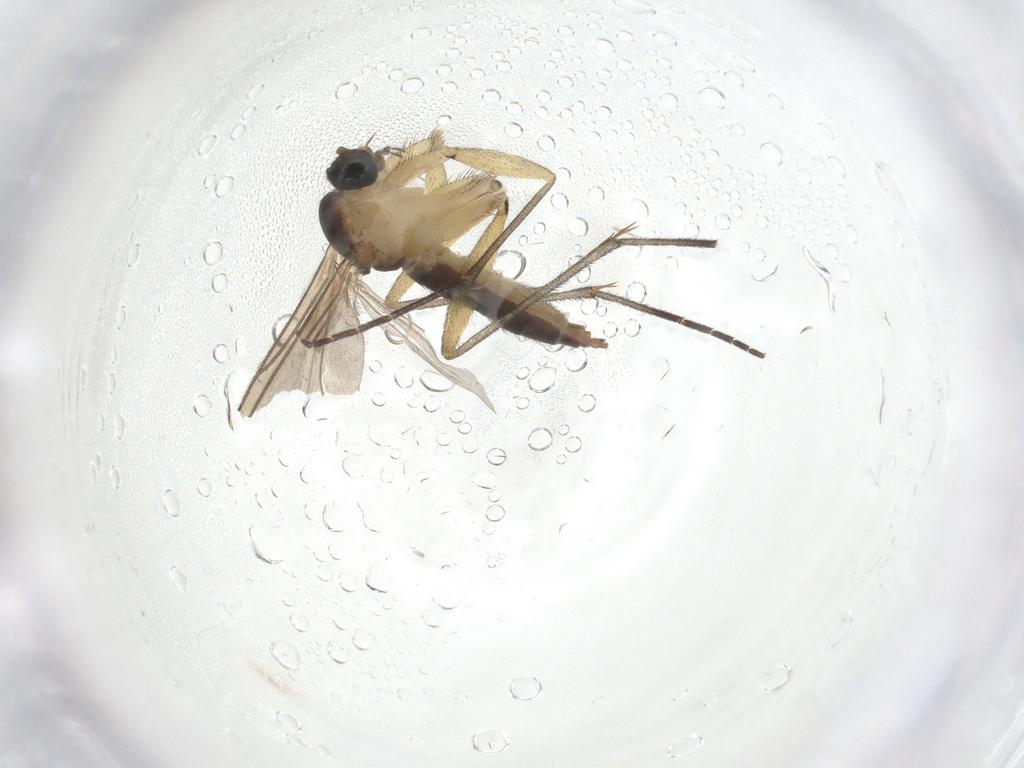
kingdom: Animalia
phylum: Arthropoda
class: Insecta
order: Diptera
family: Sciaridae
